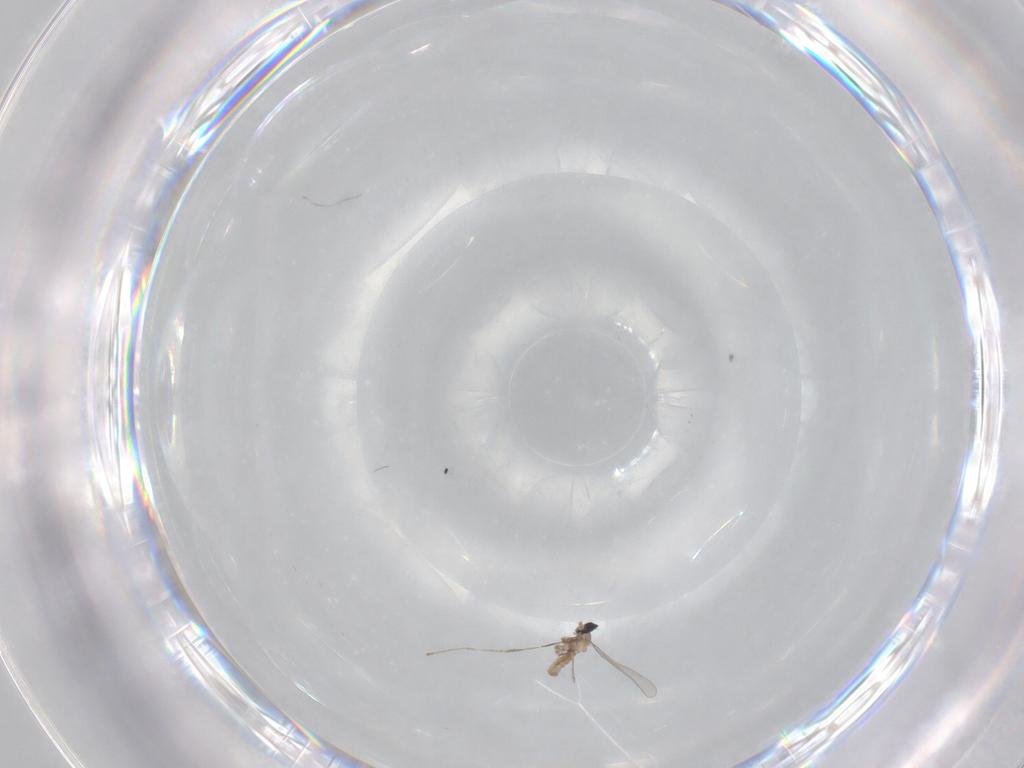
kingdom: Animalia
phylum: Arthropoda
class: Insecta
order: Diptera
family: Cecidomyiidae
